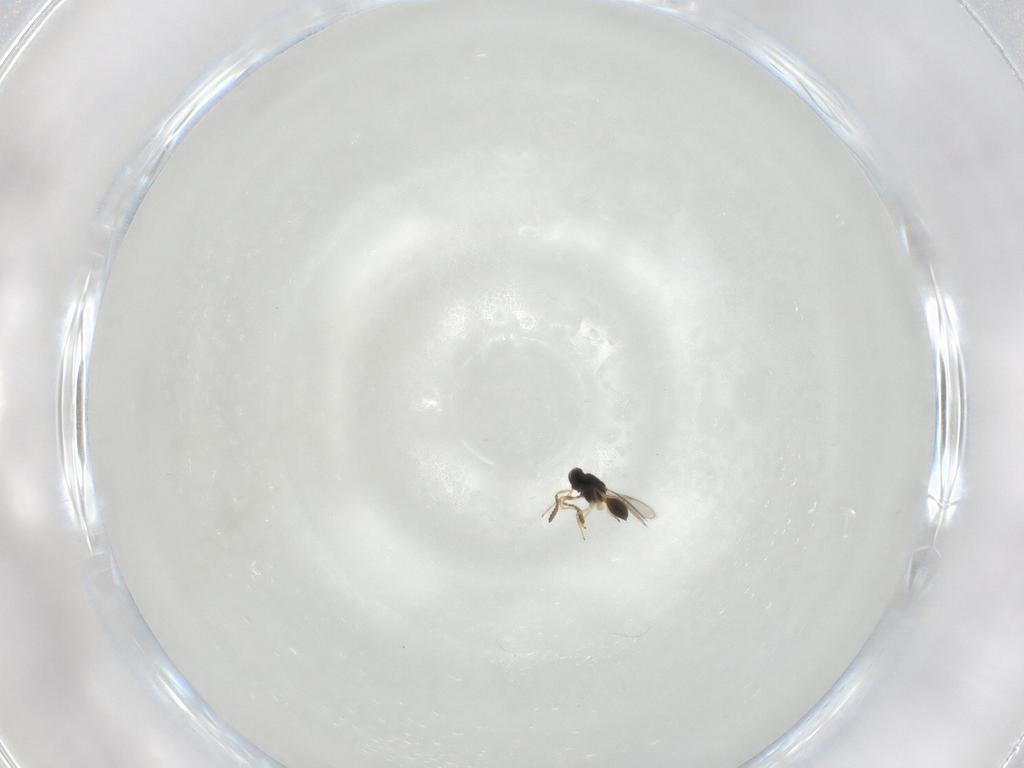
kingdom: Animalia
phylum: Arthropoda
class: Insecta
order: Hymenoptera
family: Scelionidae
